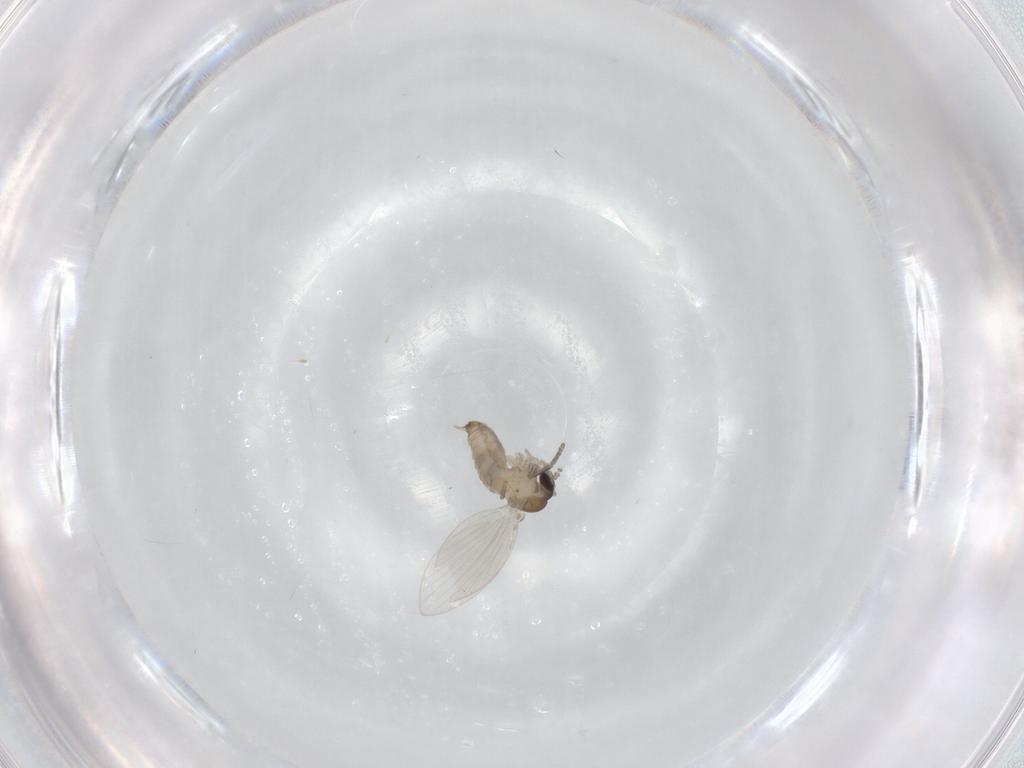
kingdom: Animalia
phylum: Arthropoda
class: Insecta
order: Diptera
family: Psychodidae
